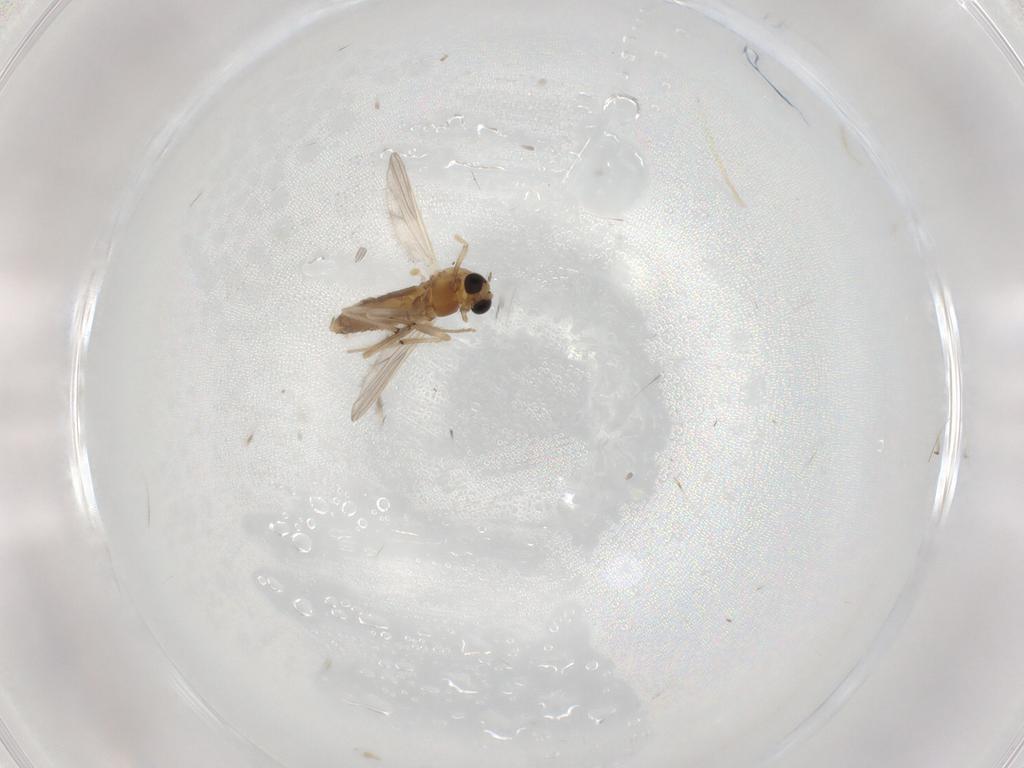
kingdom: Animalia
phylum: Arthropoda
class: Insecta
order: Diptera
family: Chironomidae
